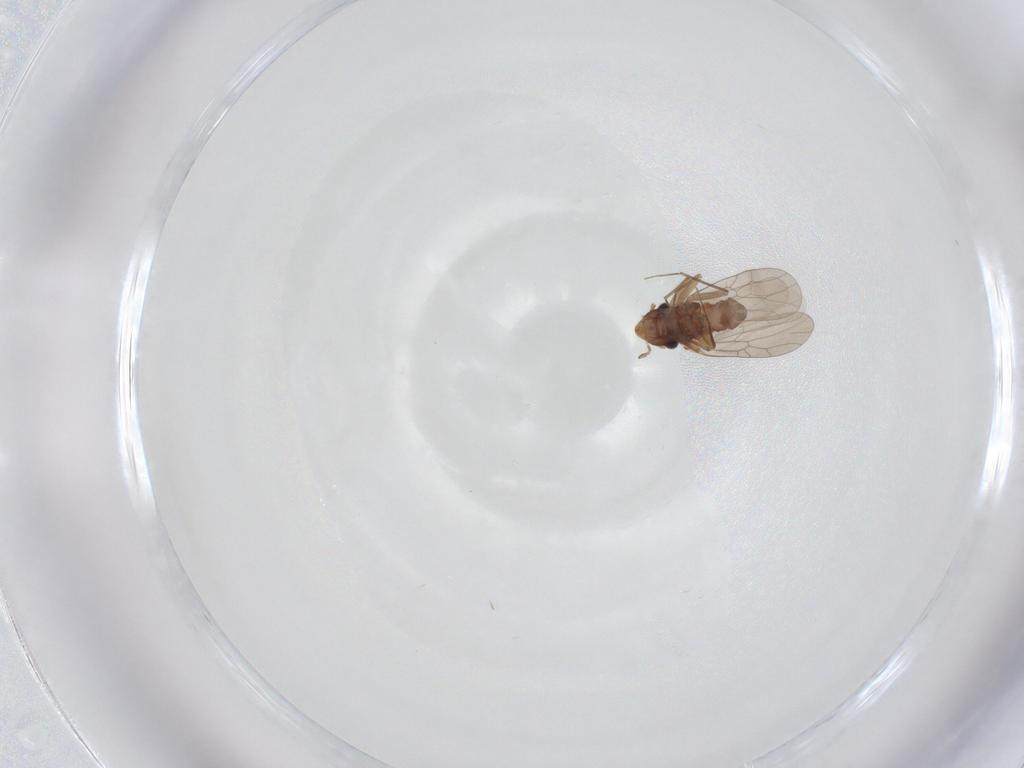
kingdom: Animalia
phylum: Arthropoda
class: Insecta
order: Psocodea
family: Lepidopsocidae
